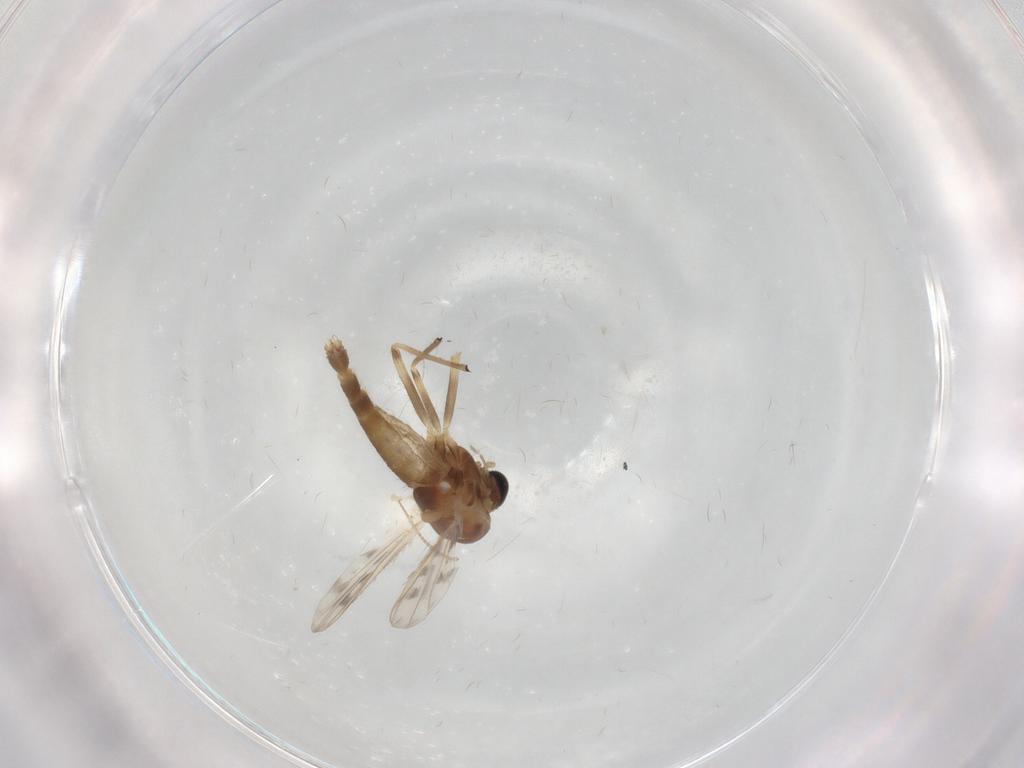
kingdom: Animalia
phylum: Arthropoda
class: Insecta
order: Diptera
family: Chironomidae
